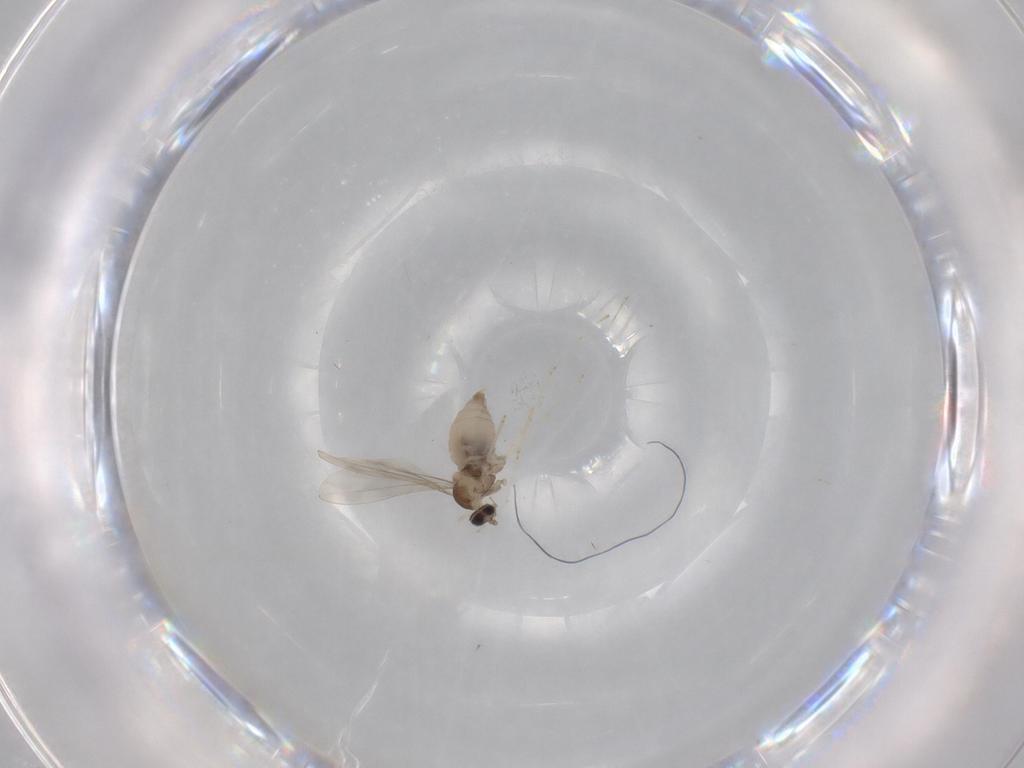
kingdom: Animalia
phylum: Arthropoda
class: Insecta
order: Diptera
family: Cecidomyiidae
